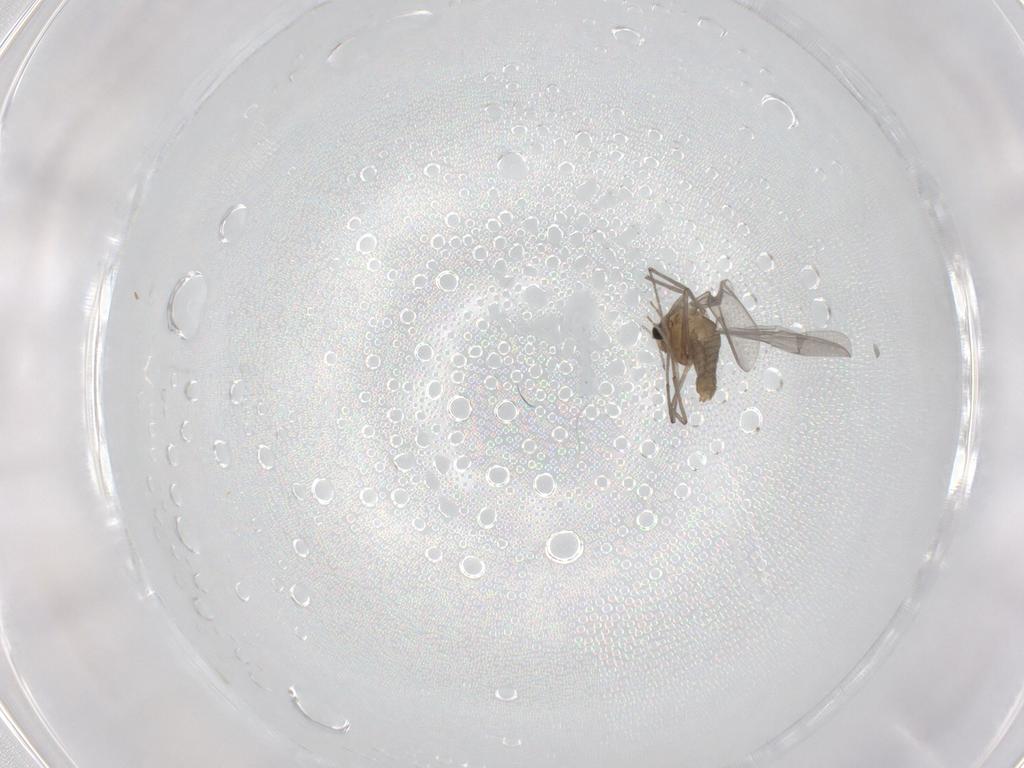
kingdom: Animalia
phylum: Arthropoda
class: Insecta
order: Diptera
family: Chironomidae
